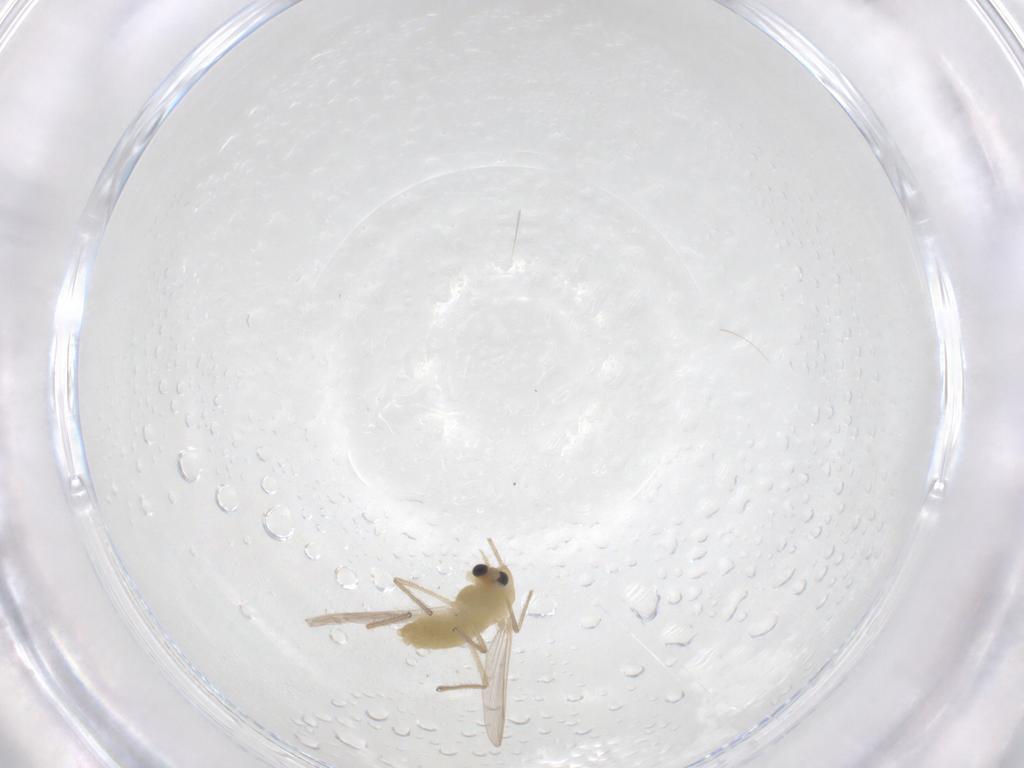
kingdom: Animalia
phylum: Arthropoda
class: Insecta
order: Diptera
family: Chironomidae
